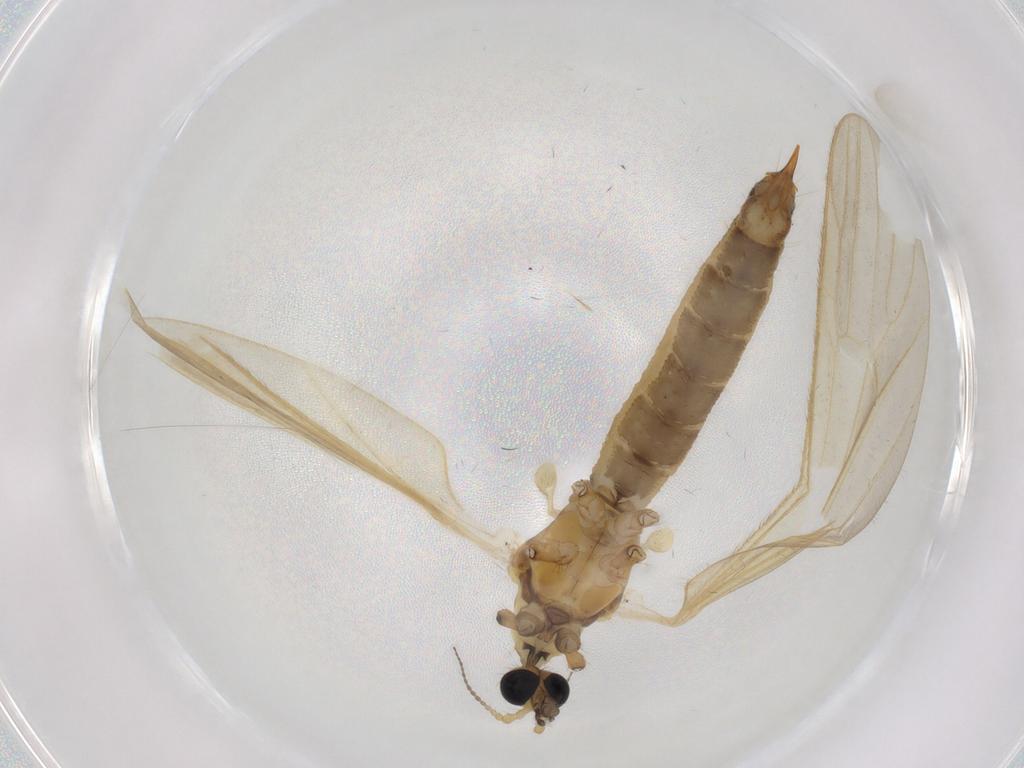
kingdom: Animalia
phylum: Arthropoda
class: Insecta
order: Diptera
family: Limoniidae
